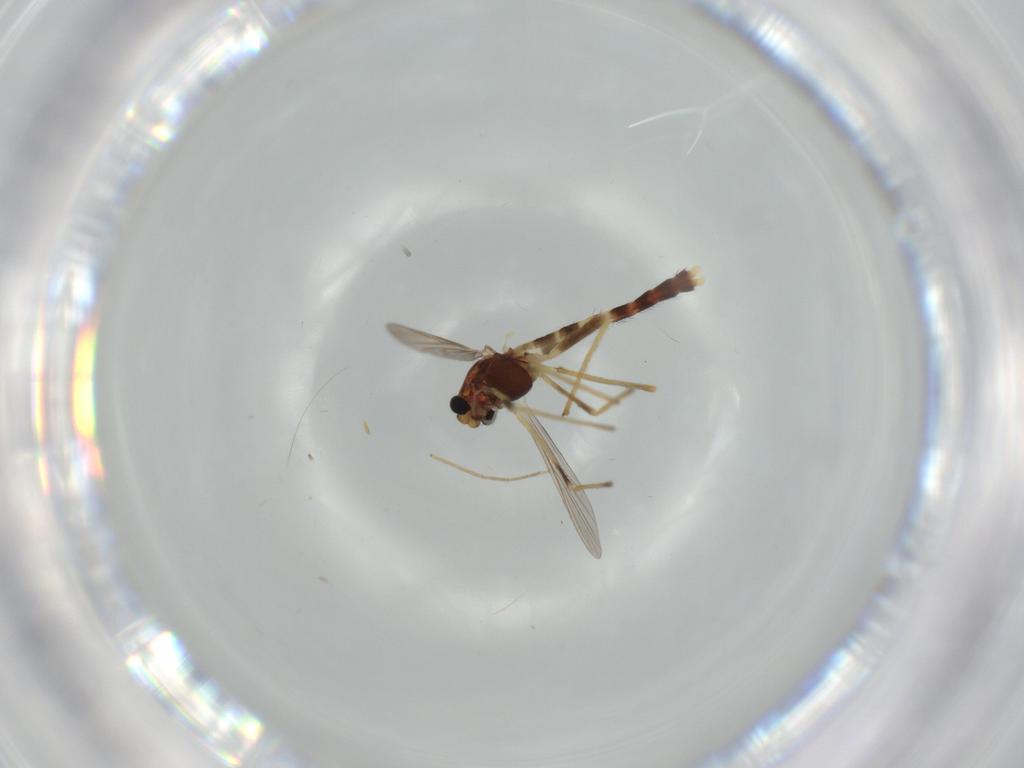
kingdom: Animalia
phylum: Arthropoda
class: Insecta
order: Diptera
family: Chironomidae
